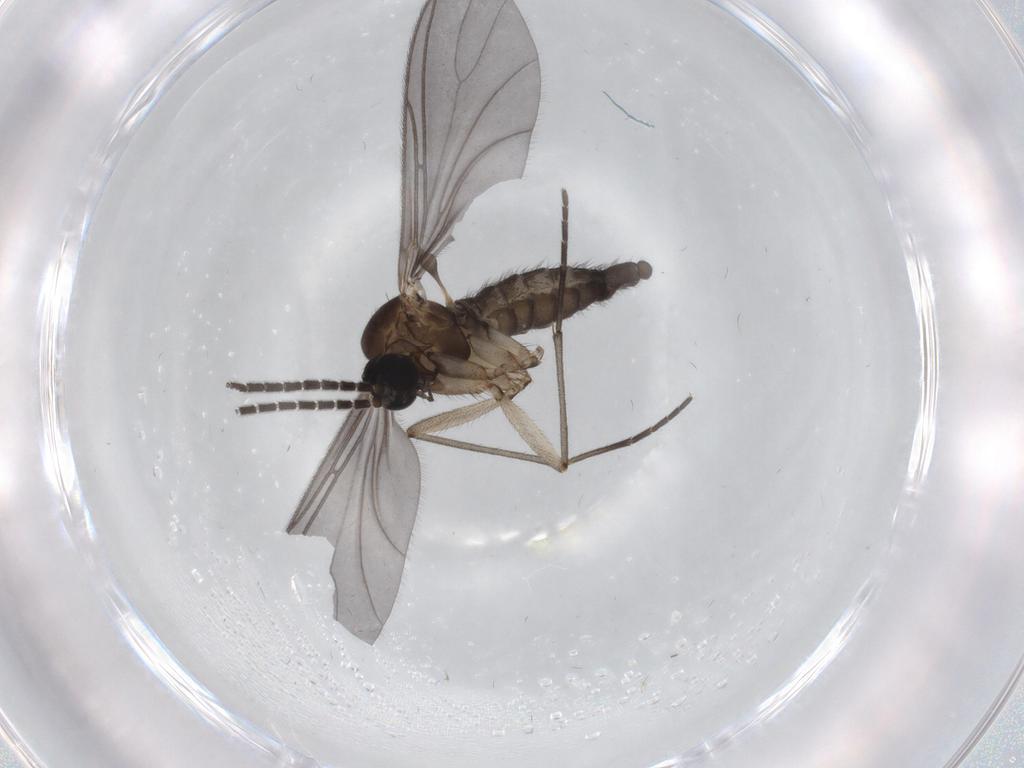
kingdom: Animalia
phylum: Arthropoda
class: Insecta
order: Diptera
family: Sciaridae
